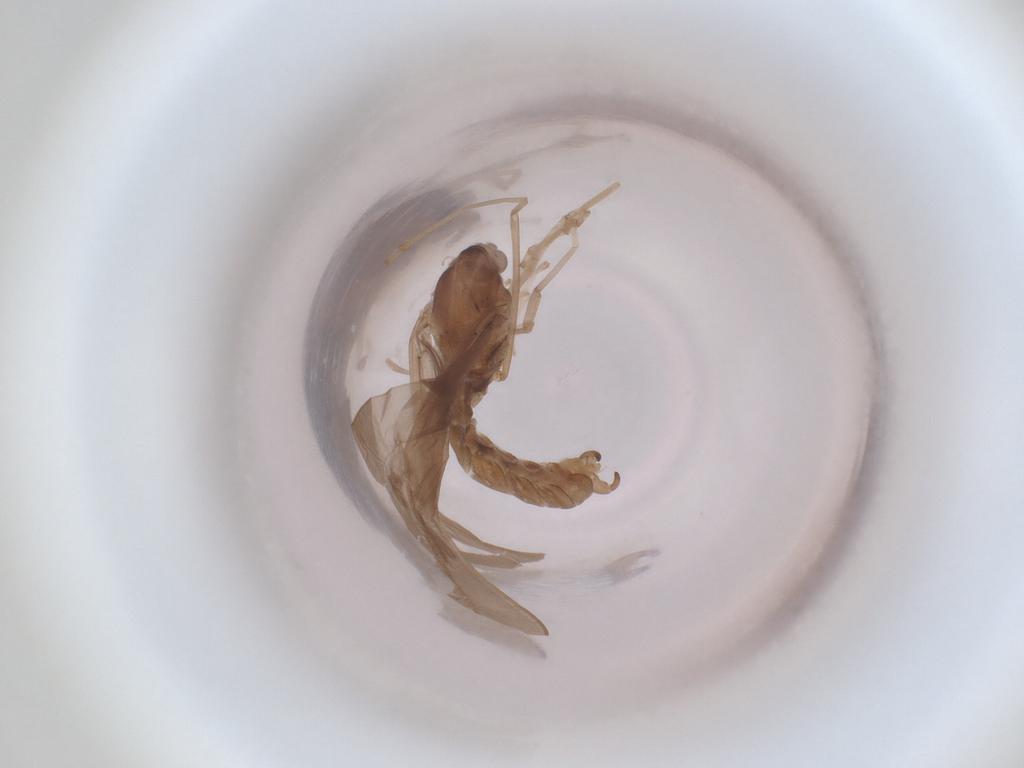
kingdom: Animalia
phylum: Arthropoda
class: Insecta
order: Diptera
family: Cecidomyiidae
